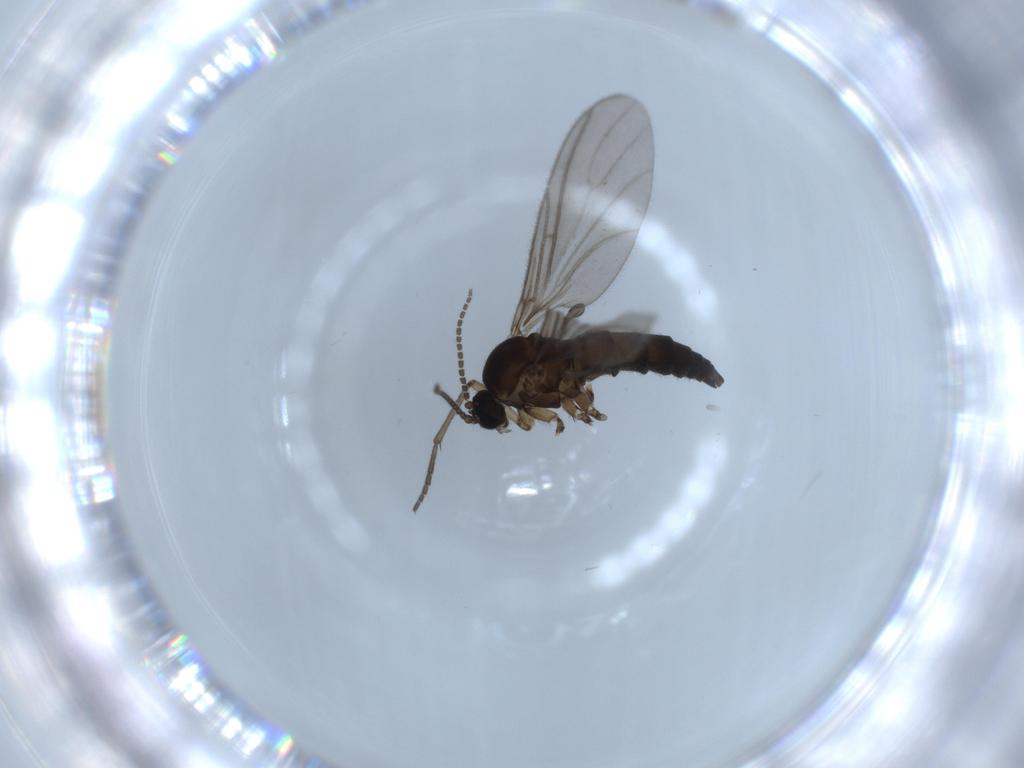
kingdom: Animalia
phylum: Arthropoda
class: Insecta
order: Diptera
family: Sciaridae
